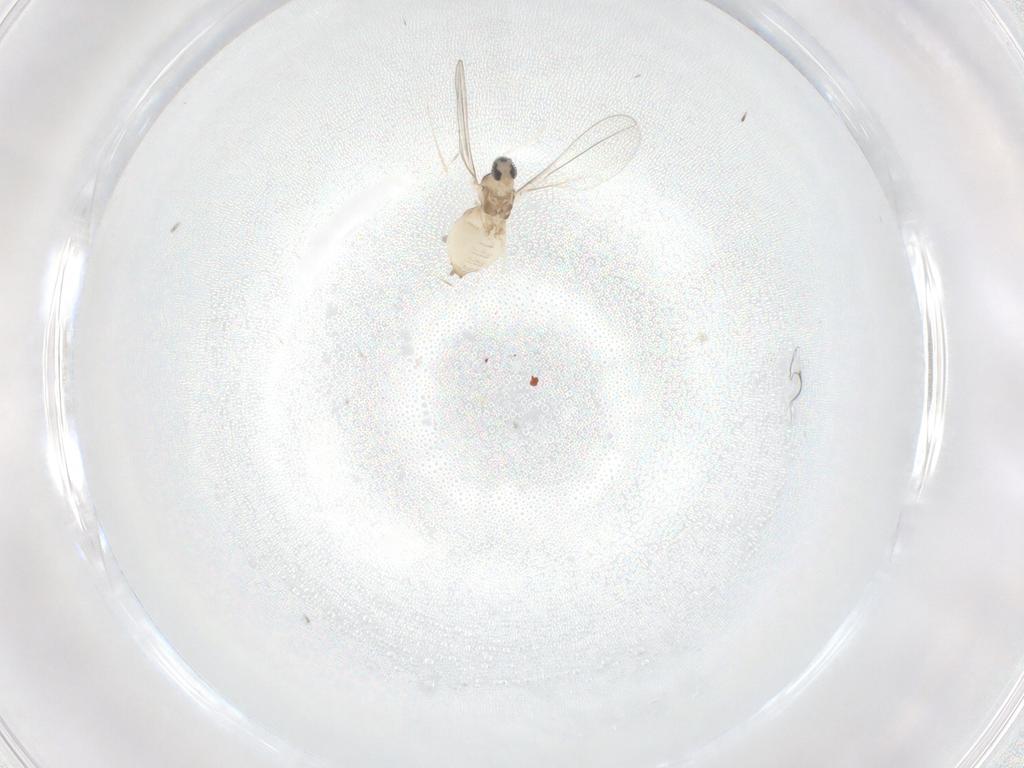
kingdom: Animalia
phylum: Arthropoda
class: Insecta
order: Diptera
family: Cecidomyiidae
